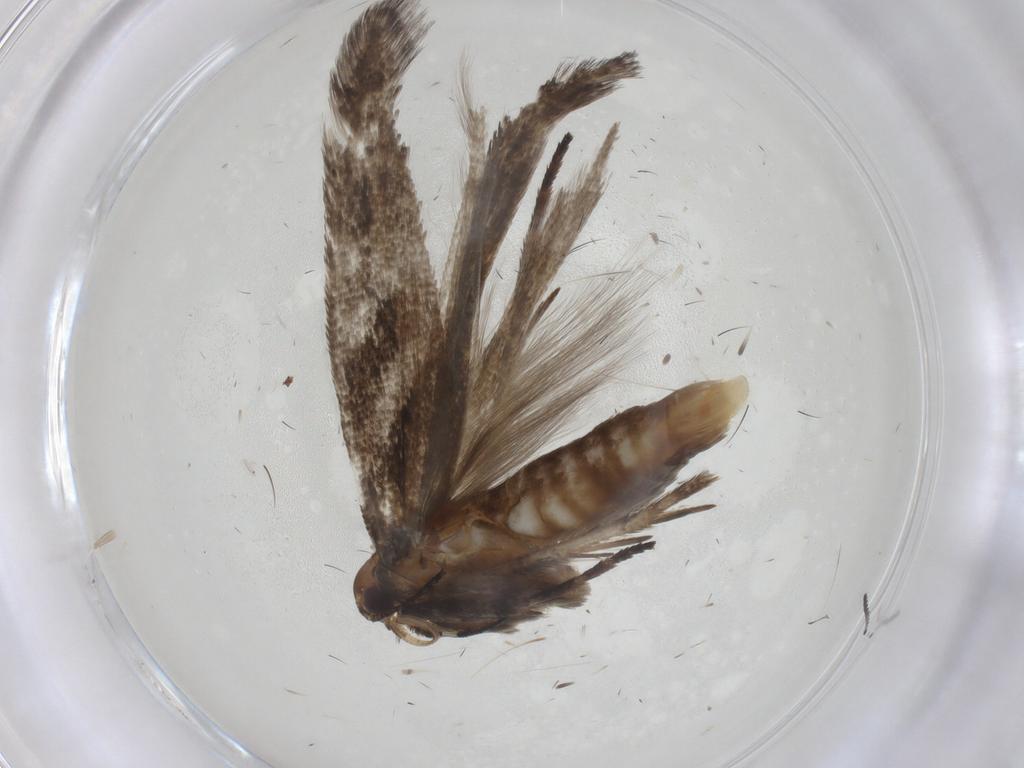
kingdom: Animalia
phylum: Arthropoda
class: Insecta
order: Lepidoptera
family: Gelechiidae
